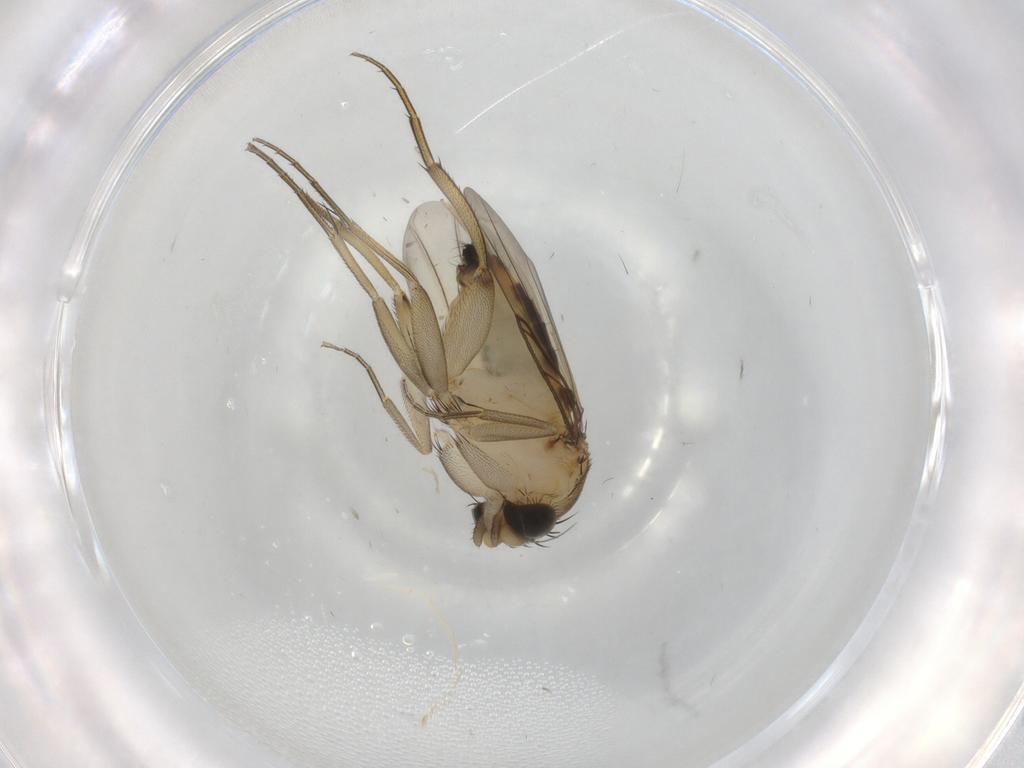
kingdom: Animalia
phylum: Arthropoda
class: Insecta
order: Diptera
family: Phoridae
